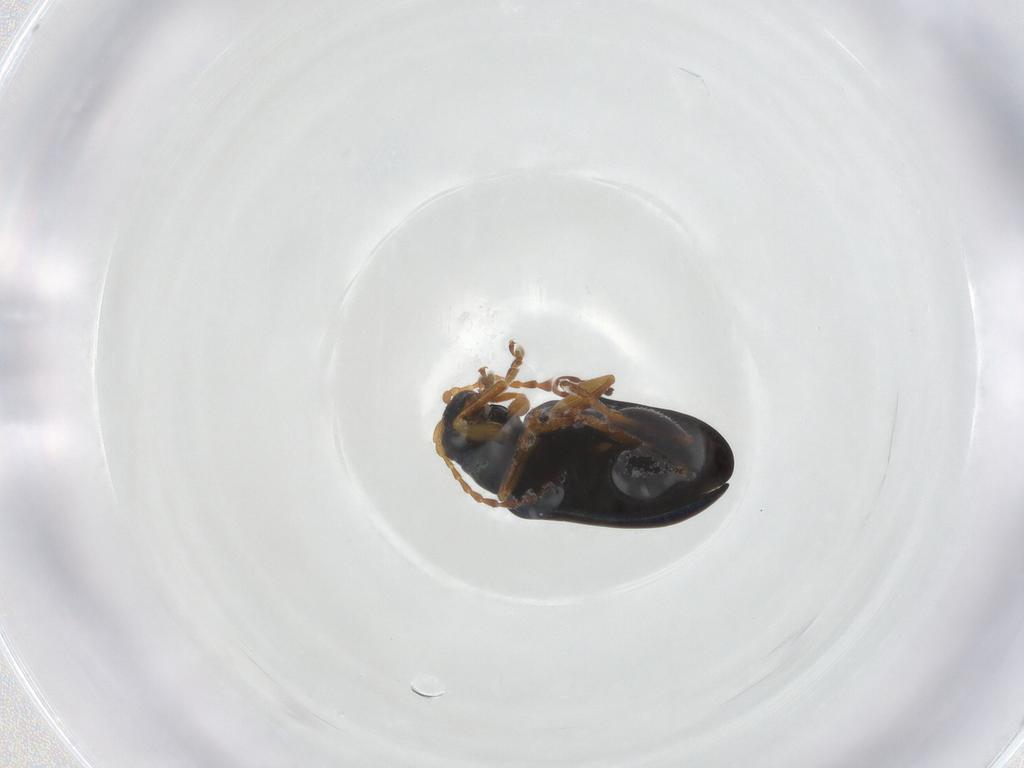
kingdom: Animalia
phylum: Arthropoda
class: Insecta
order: Coleoptera
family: Chrysomelidae
